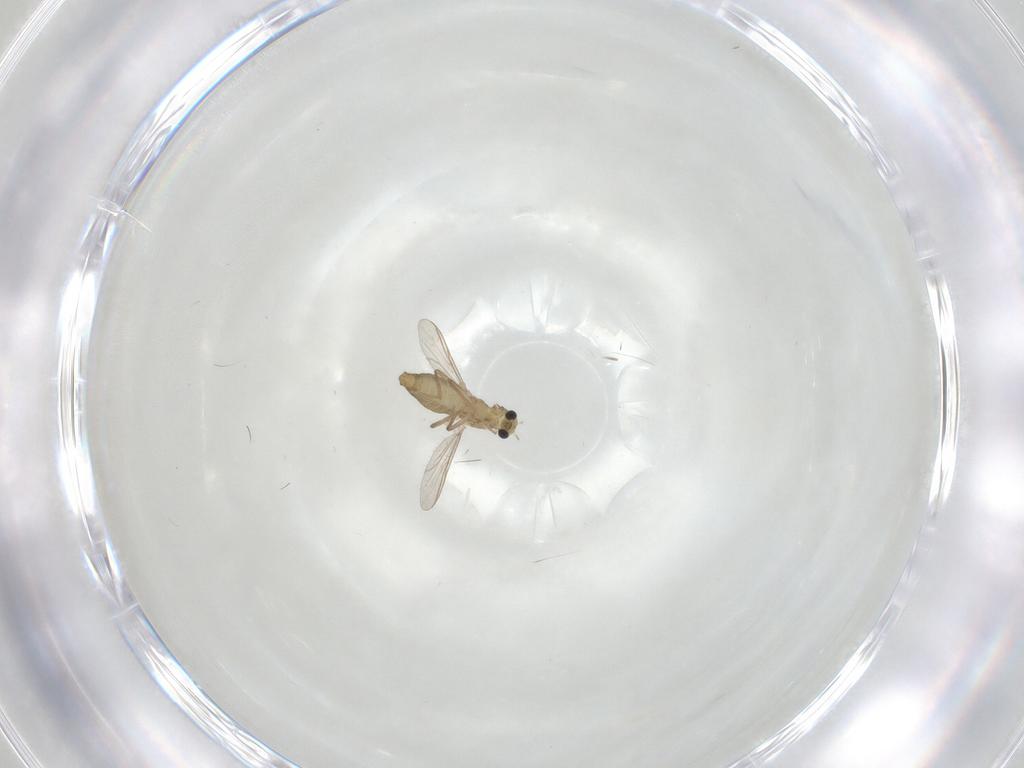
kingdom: Animalia
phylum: Arthropoda
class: Insecta
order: Diptera
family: Chironomidae
